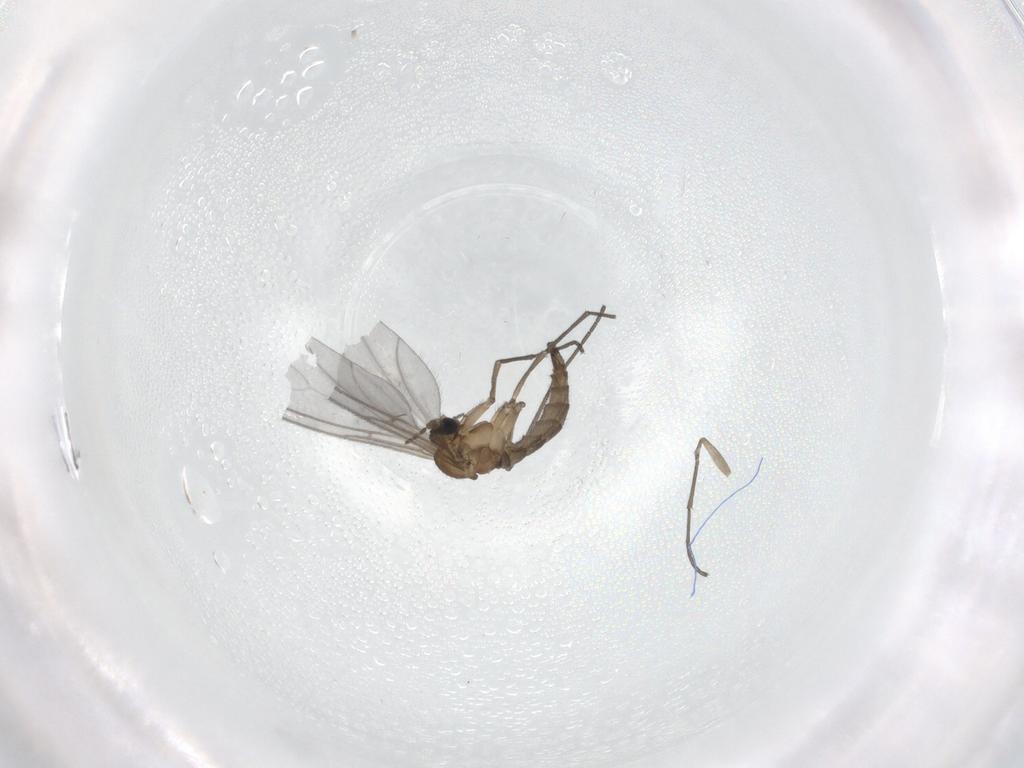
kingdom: Animalia
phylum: Arthropoda
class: Insecta
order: Diptera
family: Sciaridae
